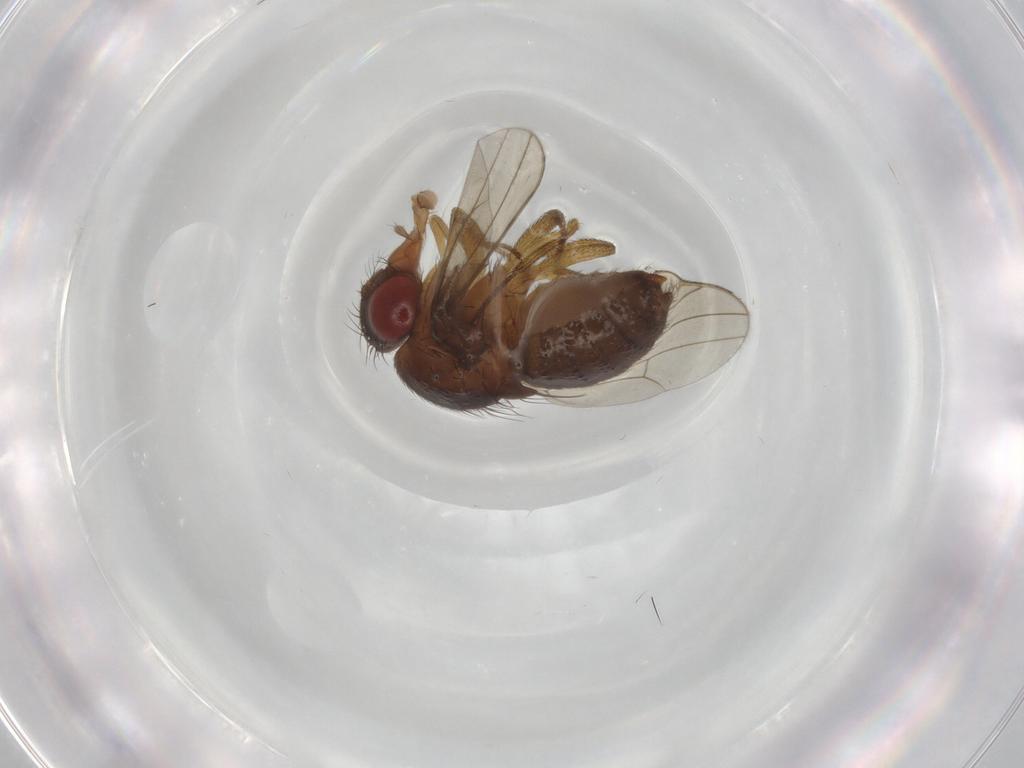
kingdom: Animalia
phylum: Arthropoda
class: Insecta
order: Diptera
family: Drosophilidae
